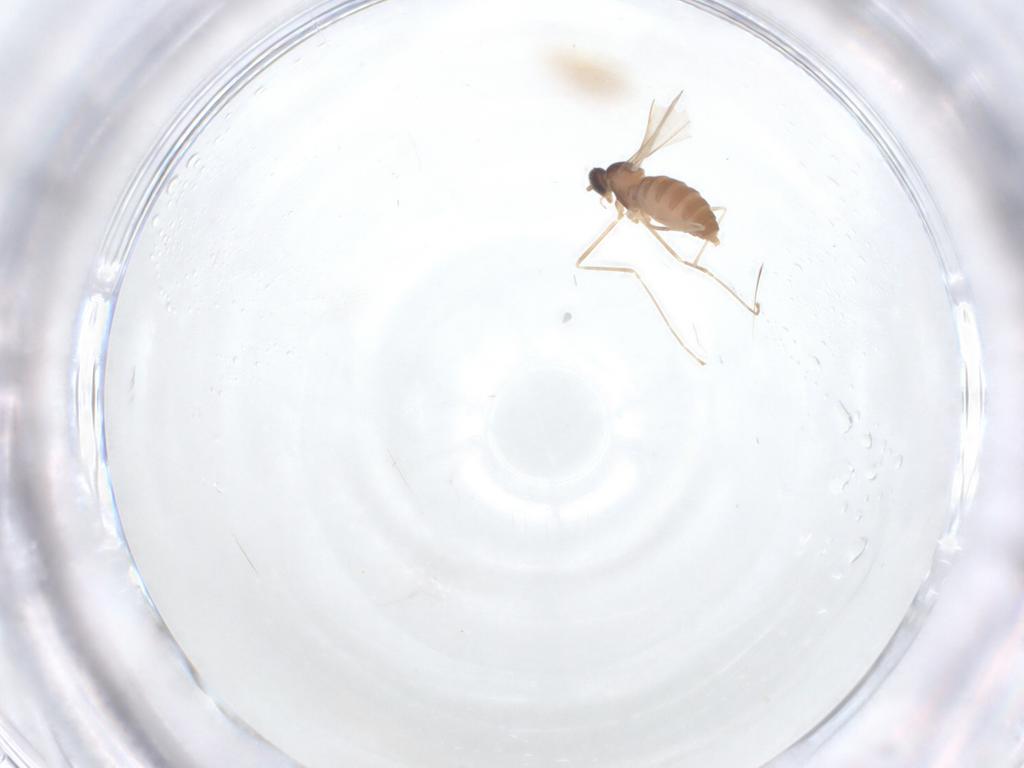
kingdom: Animalia
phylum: Arthropoda
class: Insecta
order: Diptera
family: Cecidomyiidae
